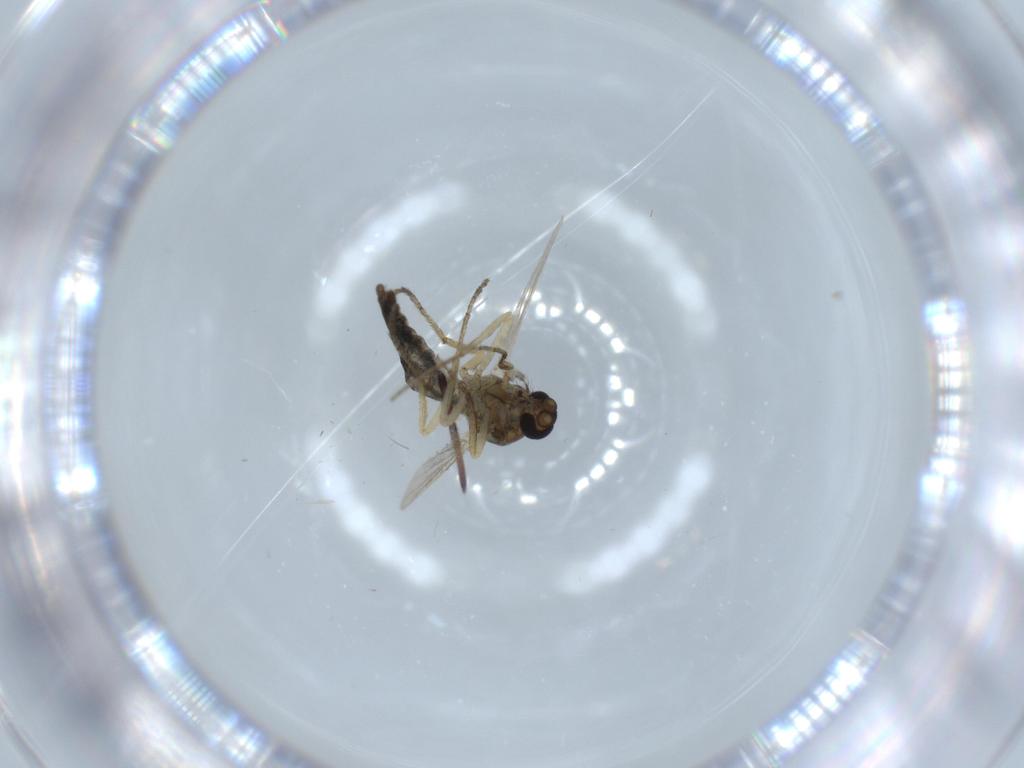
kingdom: Animalia
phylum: Arthropoda
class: Insecta
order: Diptera
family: Ceratopogonidae
